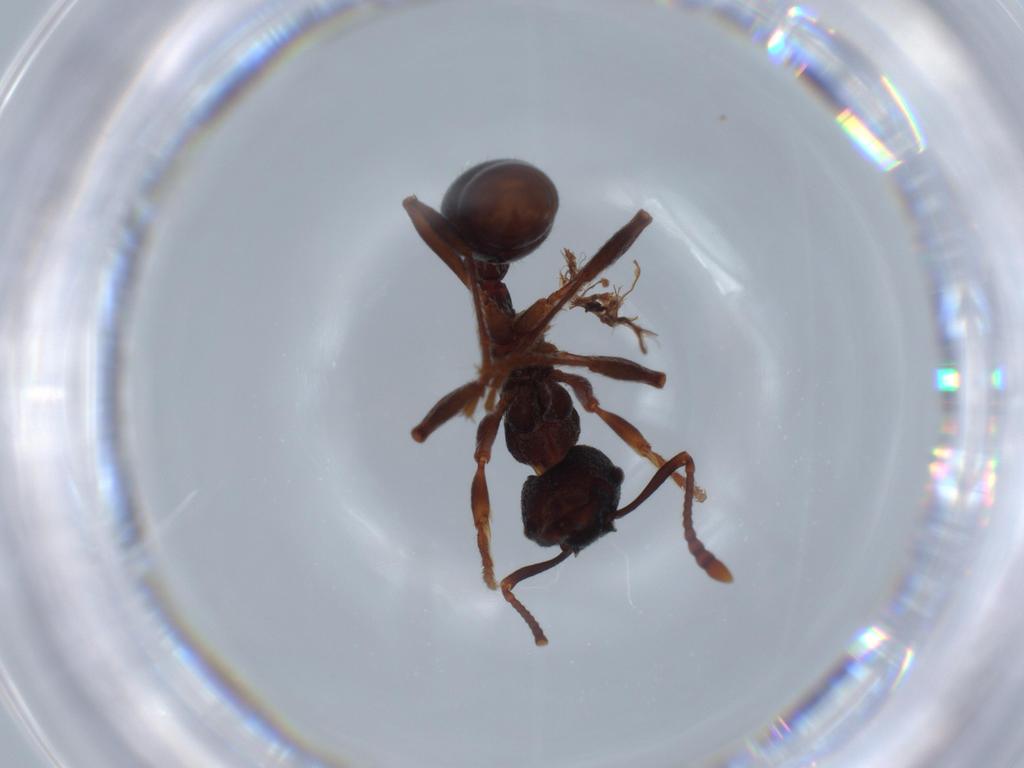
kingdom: Animalia
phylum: Arthropoda
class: Insecta
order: Hymenoptera
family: Formicidae
